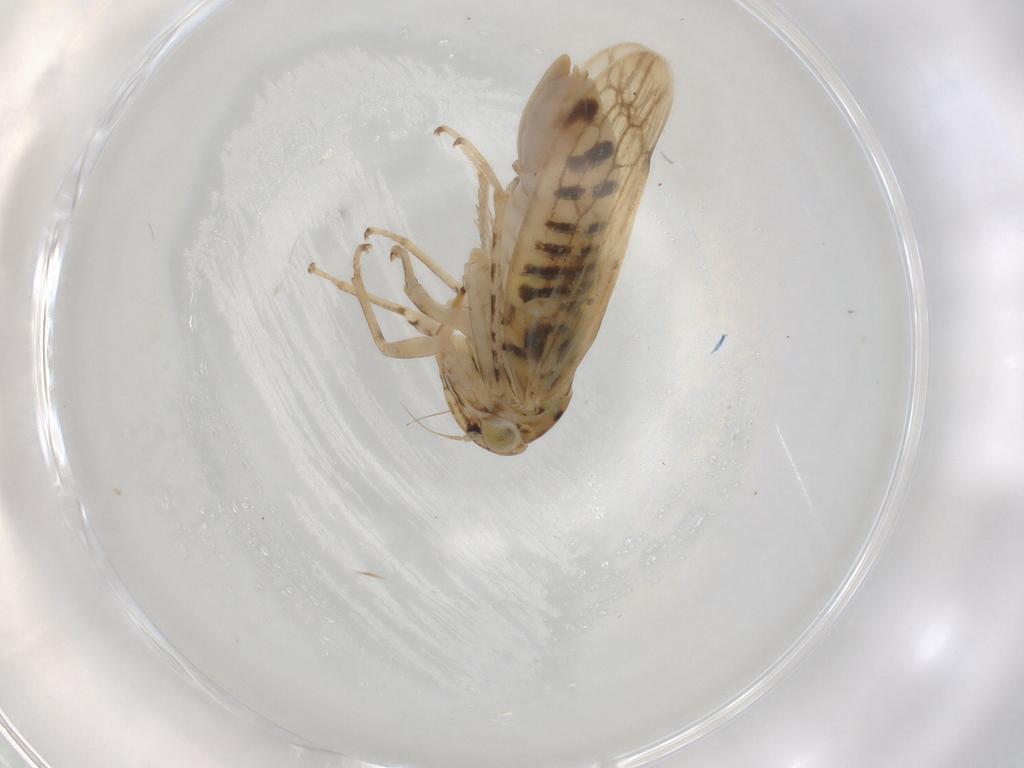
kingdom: Animalia
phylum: Arthropoda
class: Insecta
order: Hemiptera
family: Cicadellidae
